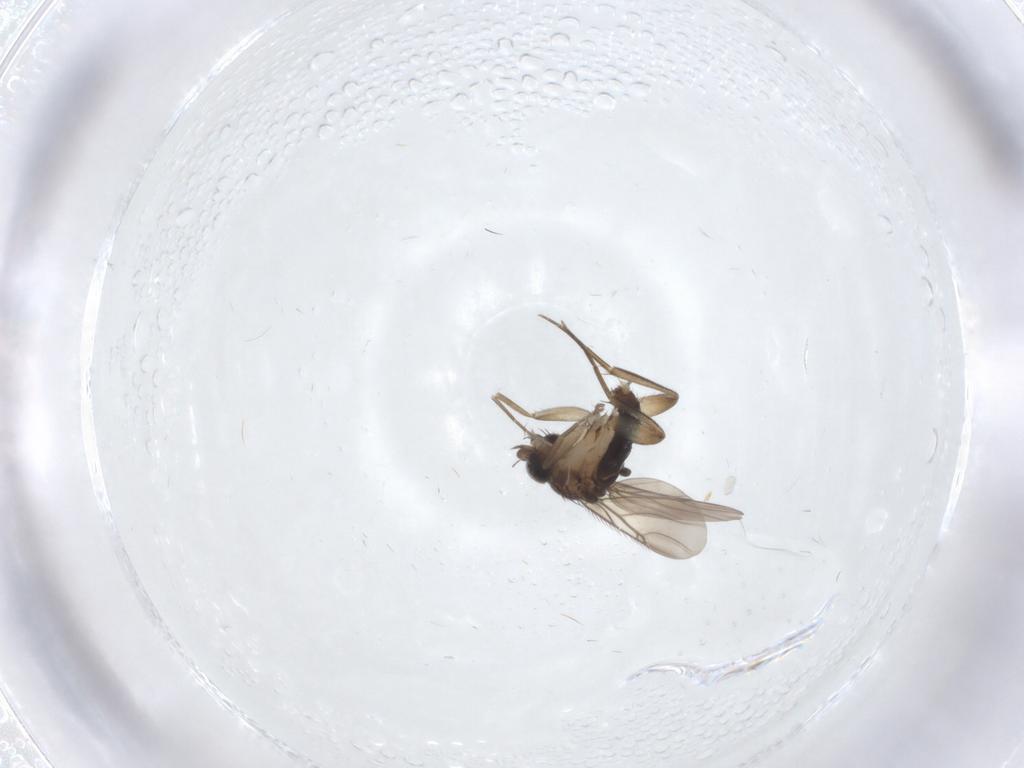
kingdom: Animalia
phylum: Arthropoda
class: Insecta
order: Diptera
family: Phoridae
